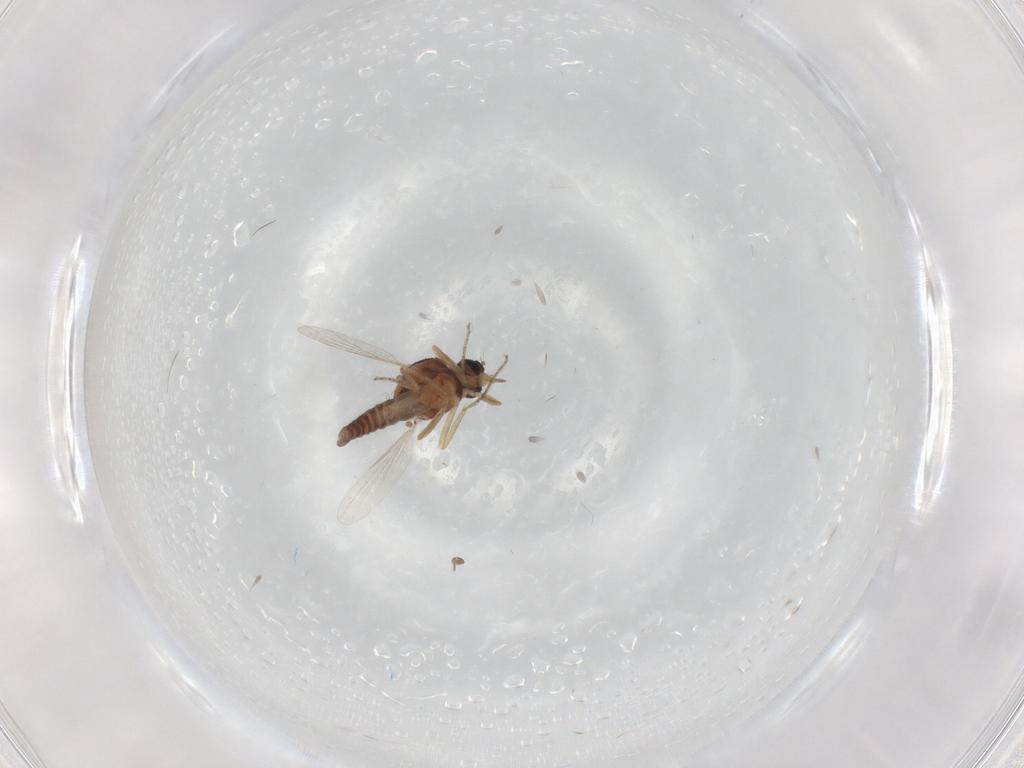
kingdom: Animalia
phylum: Arthropoda
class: Insecta
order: Diptera
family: Ceratopogonidae
